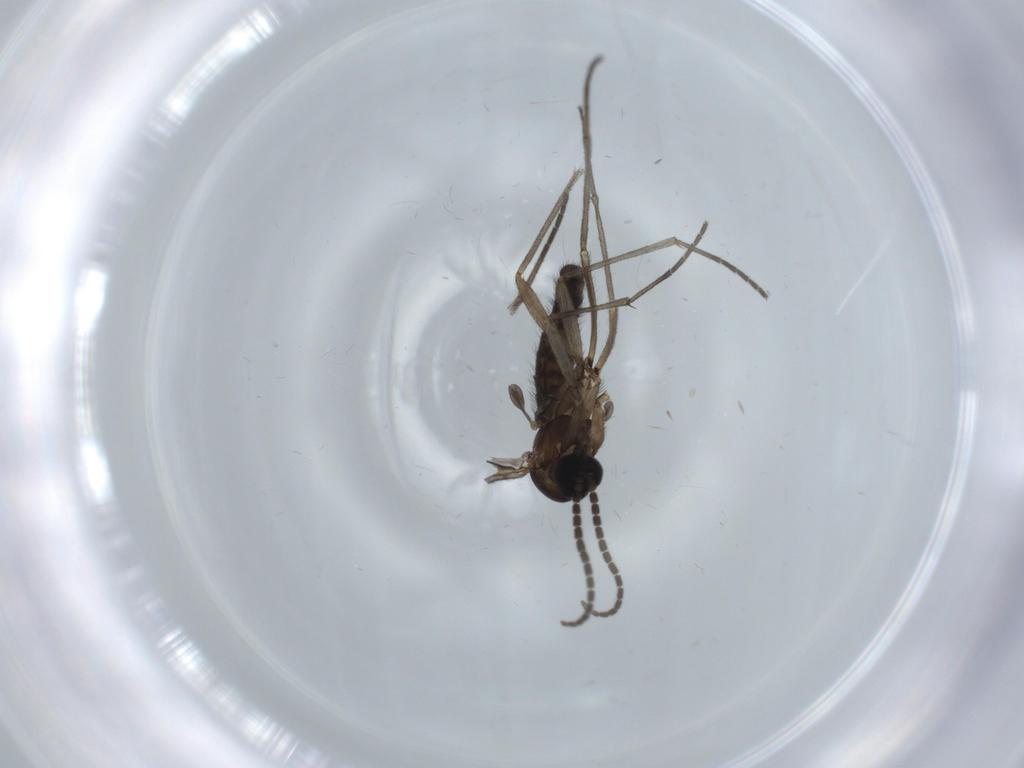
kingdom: Animalia
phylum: Arthropoda
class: Insecta
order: Diptera
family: Sciaridae
